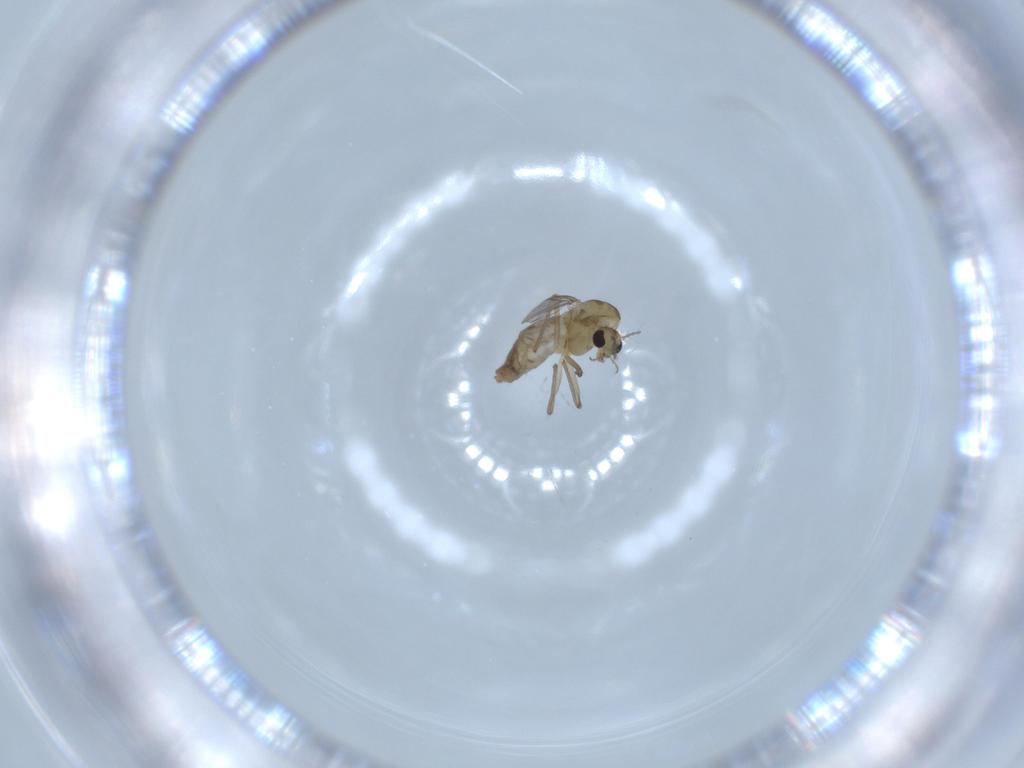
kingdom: Animalia
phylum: Arthropoda
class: Insecta
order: Diptera
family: Chironomidae
